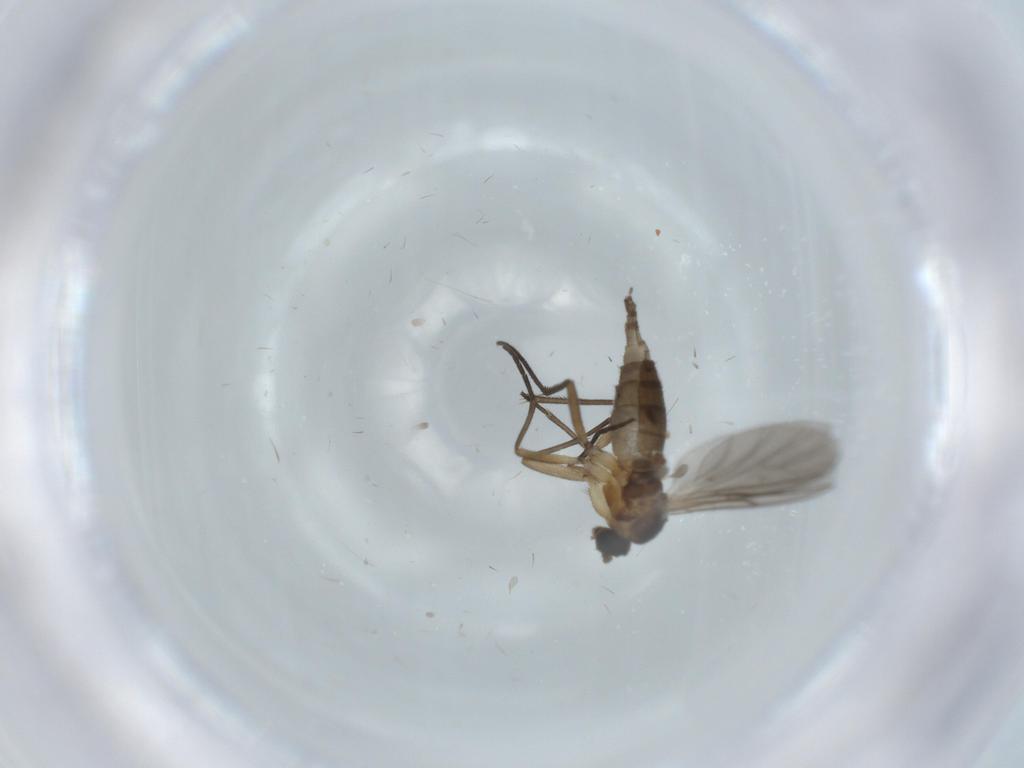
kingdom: Animalia
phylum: Arthropoda
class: Insecta
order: Diptera
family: Sciaridae
